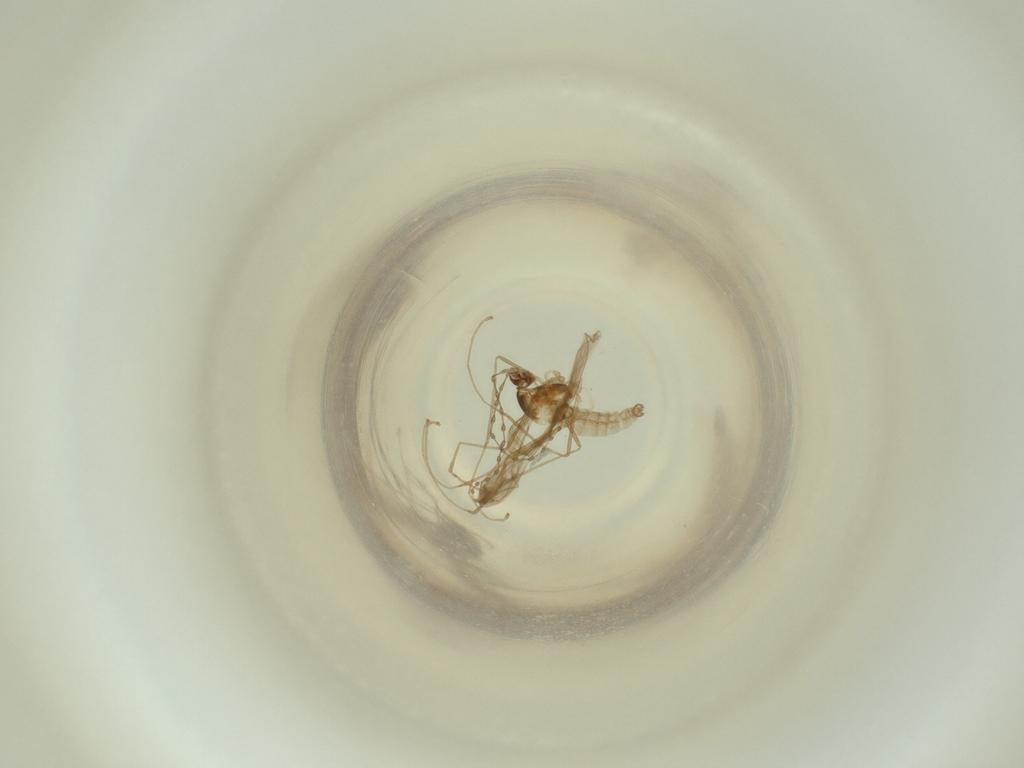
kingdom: Animalia
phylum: Arthropoda
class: Insecta
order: Diptera
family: Cecidomyiidae
